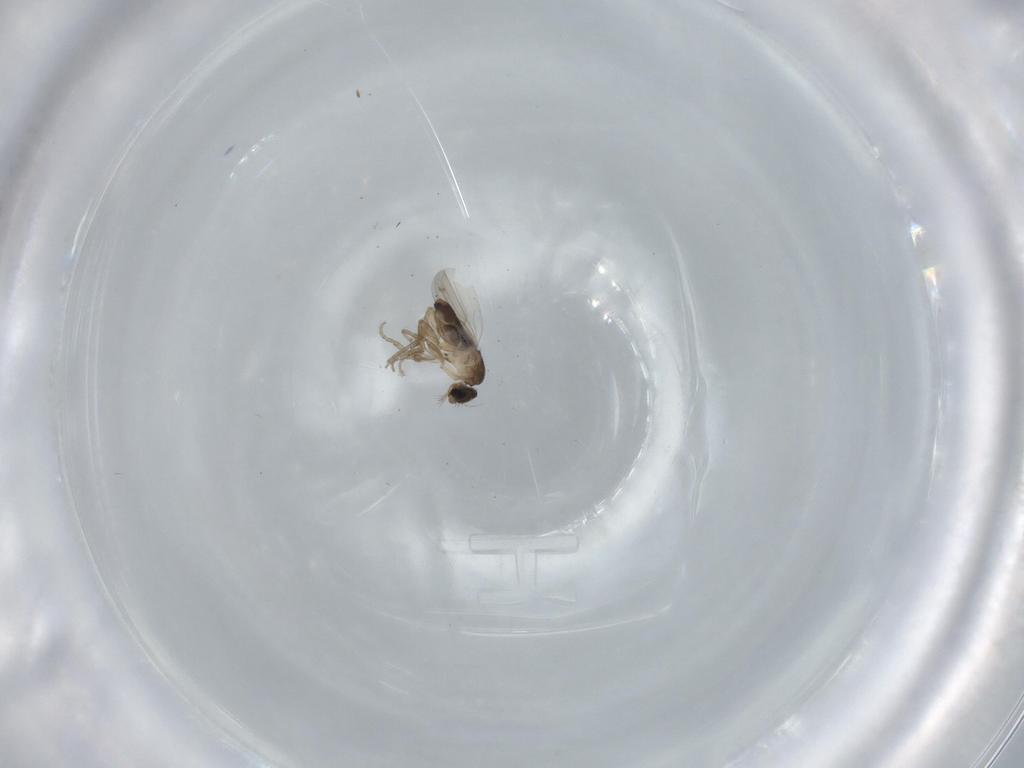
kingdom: Animalia
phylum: Arthropoda
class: Insecta
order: Diptera
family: Phoridae
